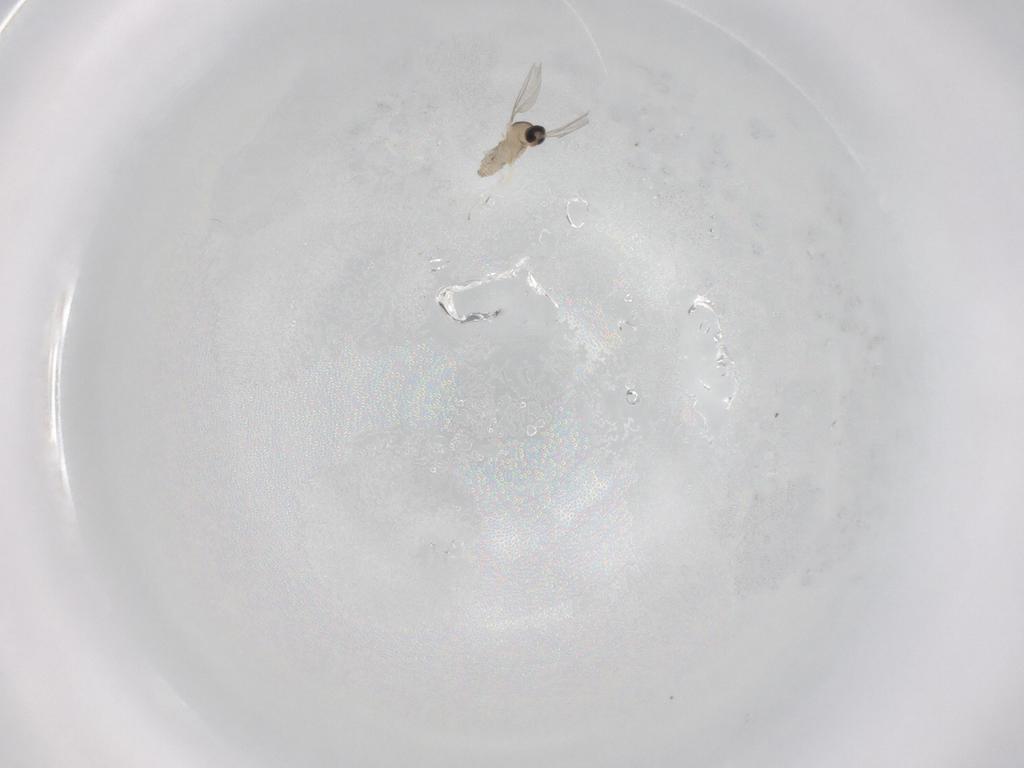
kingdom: Animalia
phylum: Arthropoda
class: Insecta
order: Diptera
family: Cecidomyiidae
